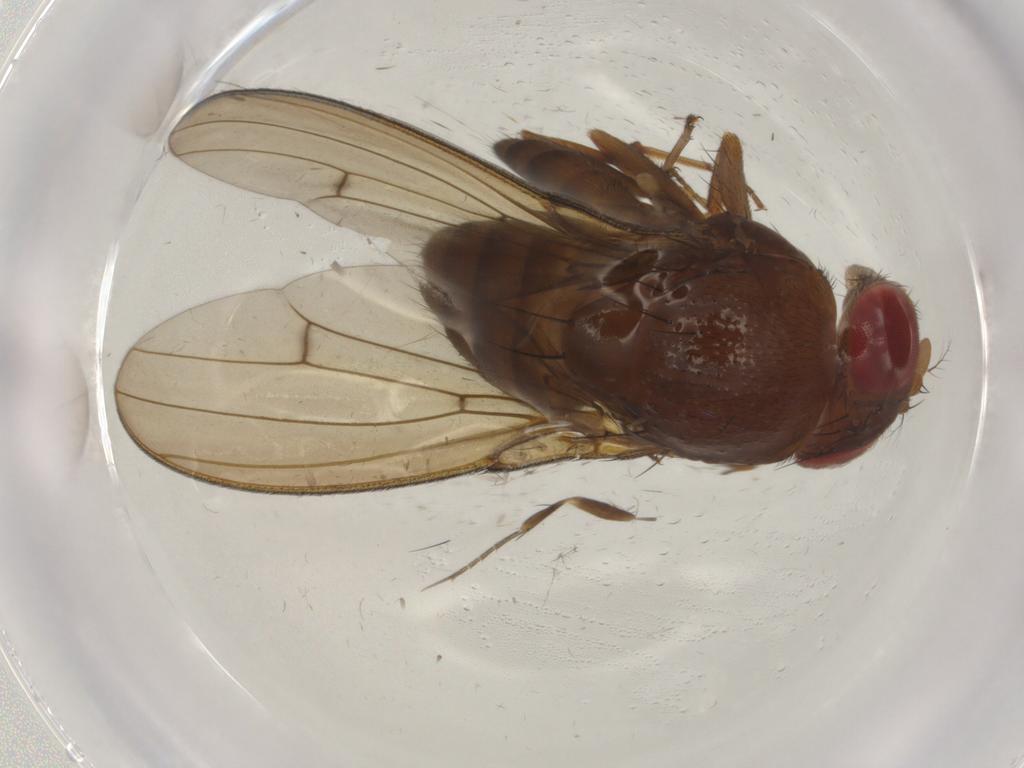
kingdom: Animalia
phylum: Arthropoda
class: Insecta
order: Diptera
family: Drosophilidae
